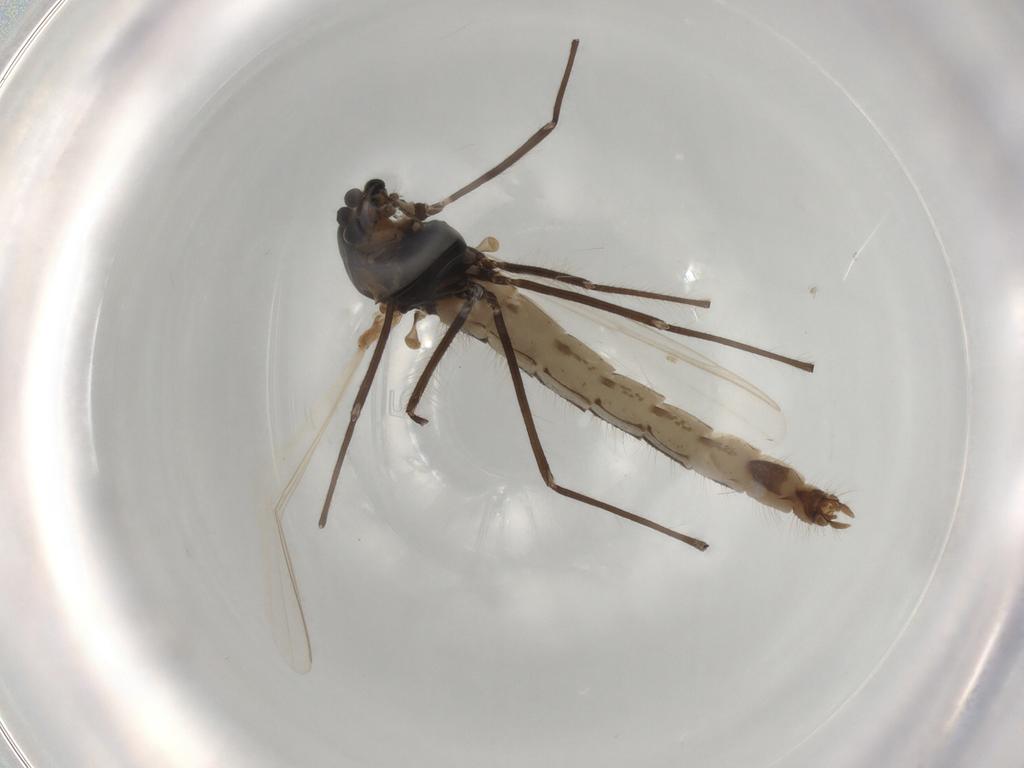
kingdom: Animalia
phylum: Arthropoda
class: Insecta
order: Diptera
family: Chironomidae
